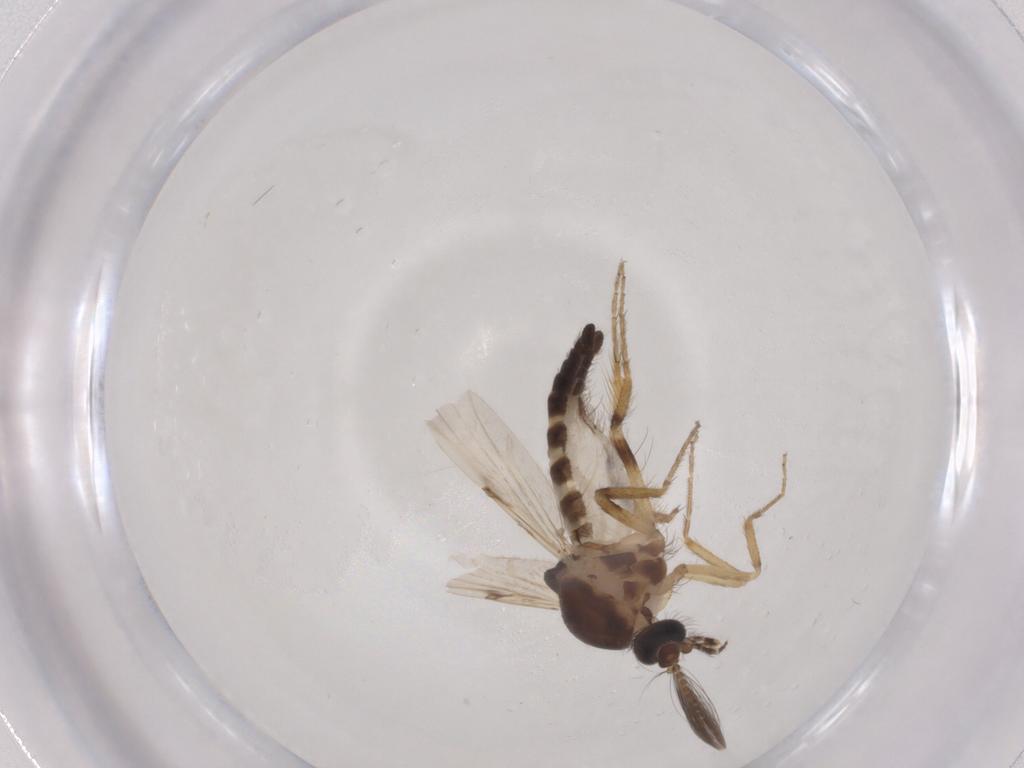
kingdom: Animalia
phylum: Arthropoda
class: Insecta
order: Diptera
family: Ceratopogonidae
